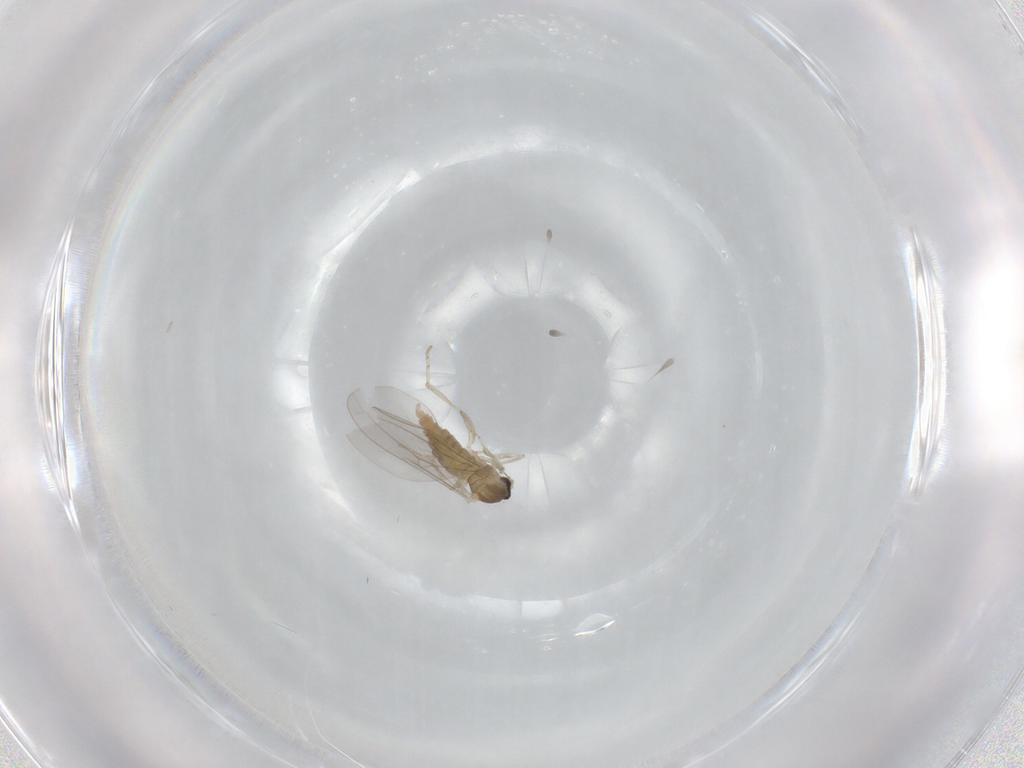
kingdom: Animalia
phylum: Arthropoda
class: Insecta
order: Diptera
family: Cecidomyiidae
